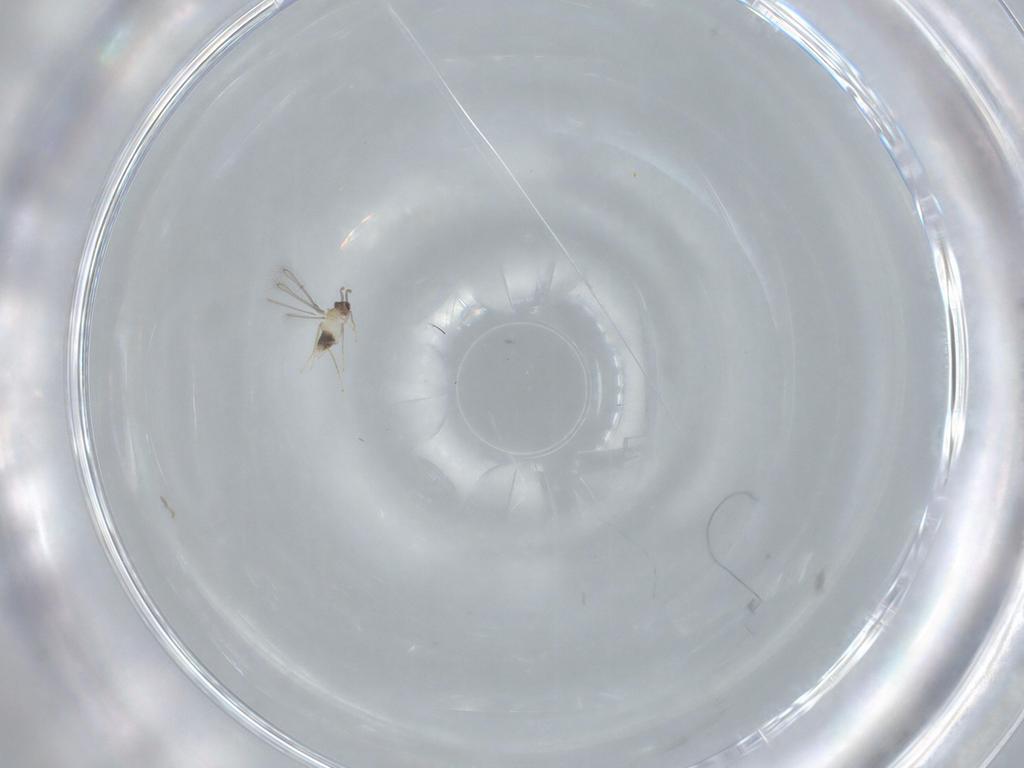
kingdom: Animalia
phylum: Arthropoda
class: Insecta
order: Hymenoptera
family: Mymaridae
